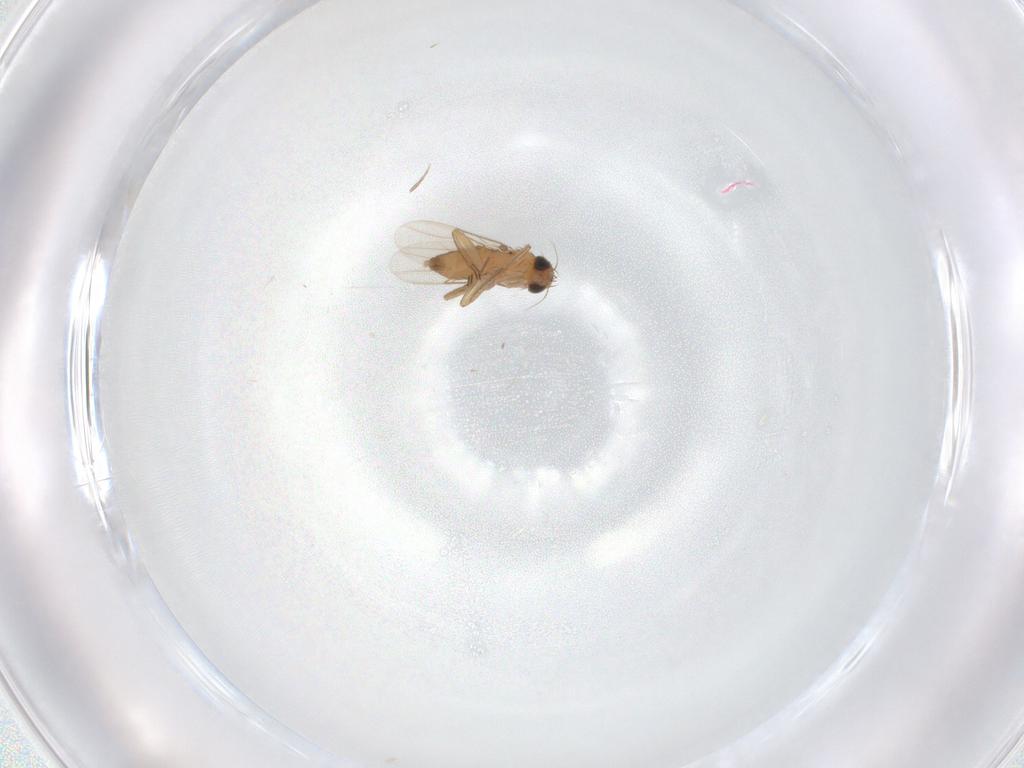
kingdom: Animalia
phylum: Arthropoda
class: Insecta
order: Diptera
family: Phoridae
